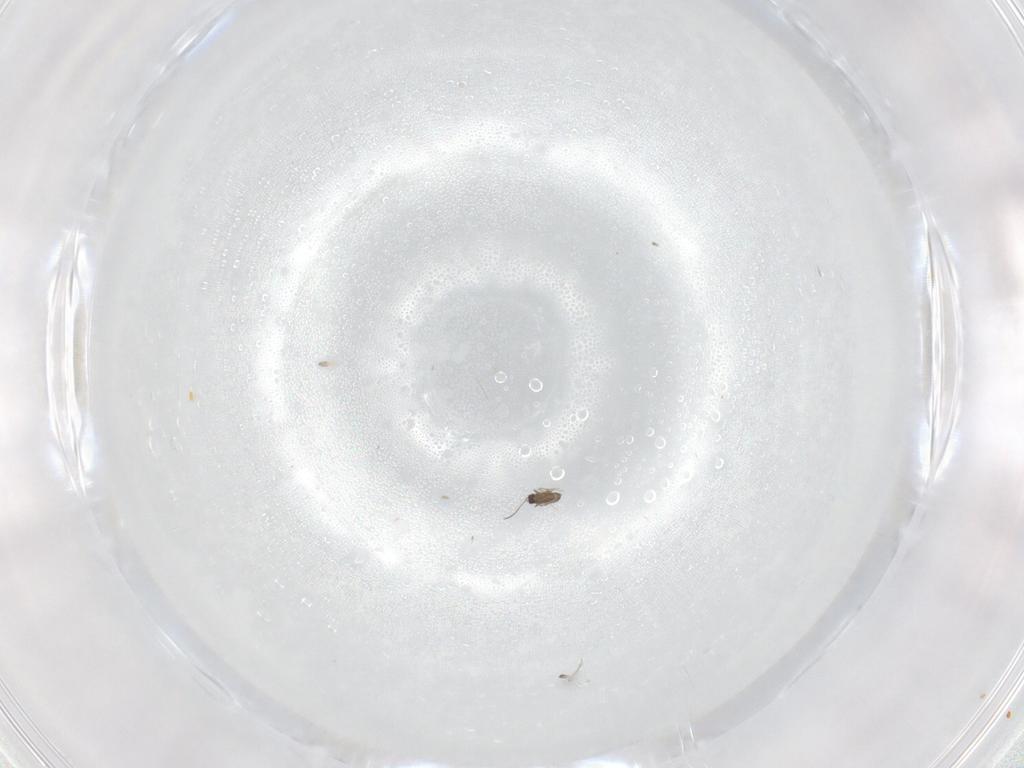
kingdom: Animalia
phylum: Arthropoda
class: Insecta
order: Hymenoptera
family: Mymaridae
